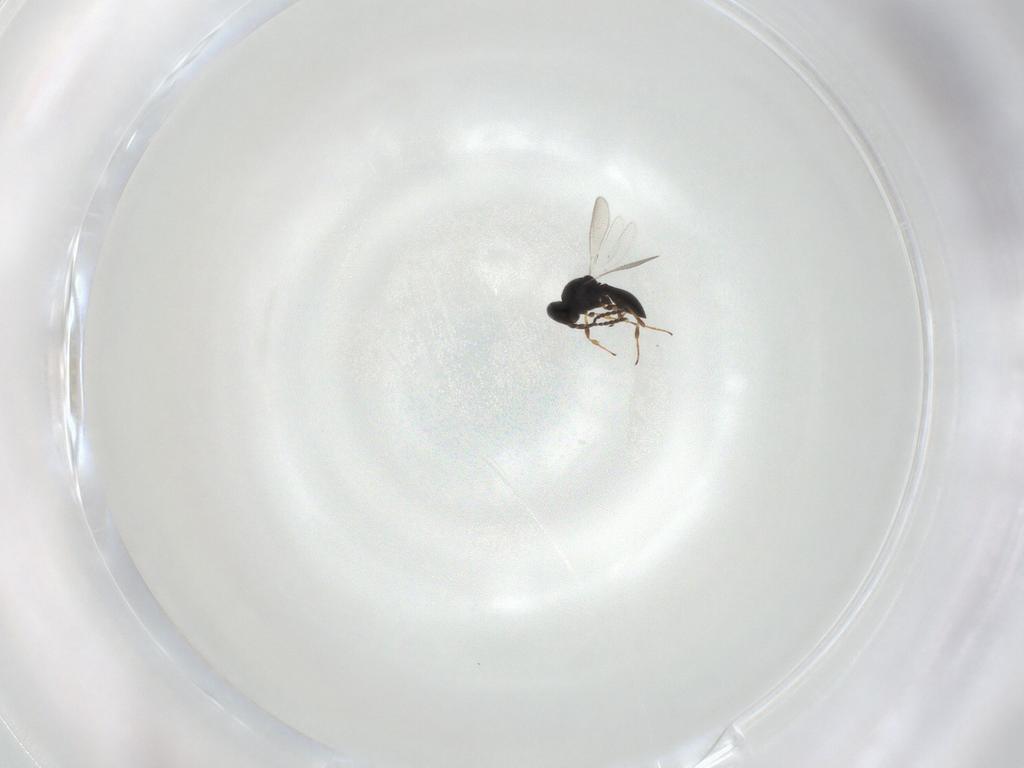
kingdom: Animalia
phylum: Arthropoda
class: Insecta
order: Hymenoptera
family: Platygastridae
